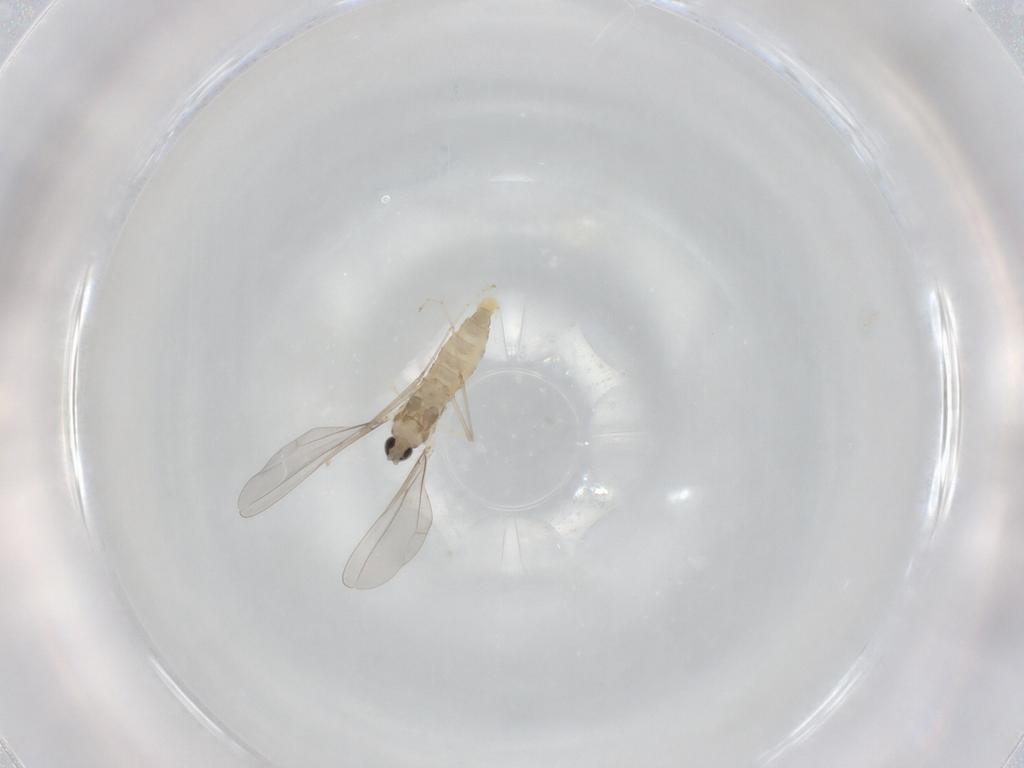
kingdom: Animalia
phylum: Arthropoda
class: Insecta
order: Diptera
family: Cecidomyiidae
